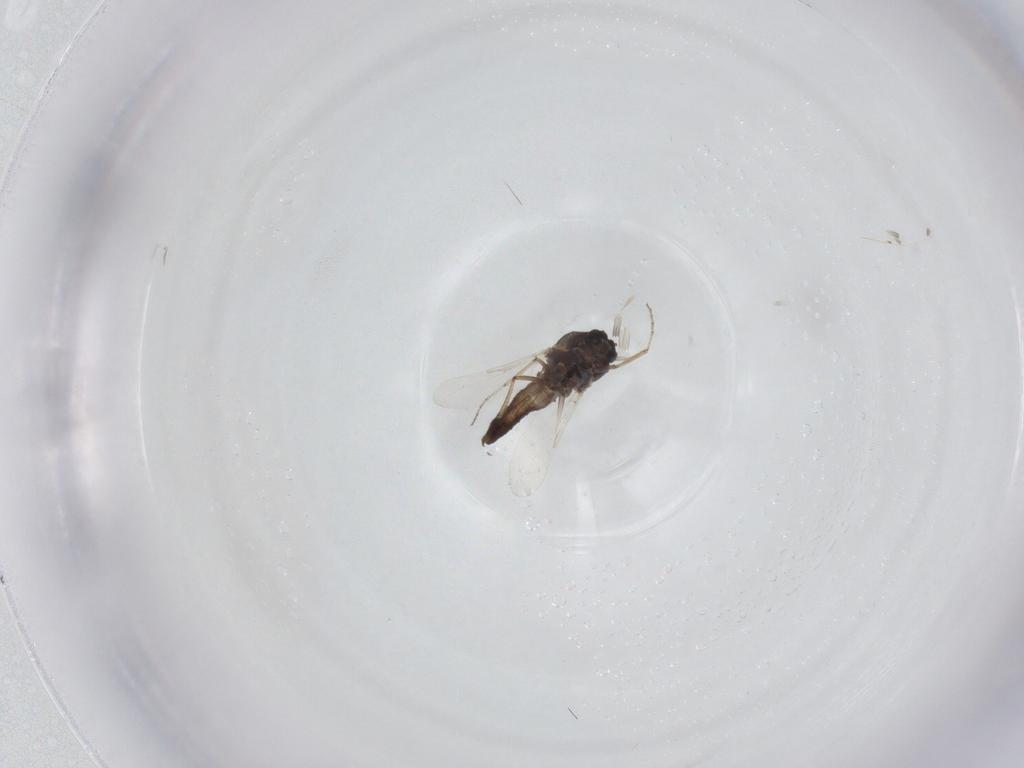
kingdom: Animalia
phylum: Arthropoda
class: Insecta
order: Diptera
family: Ceratopogonidae
